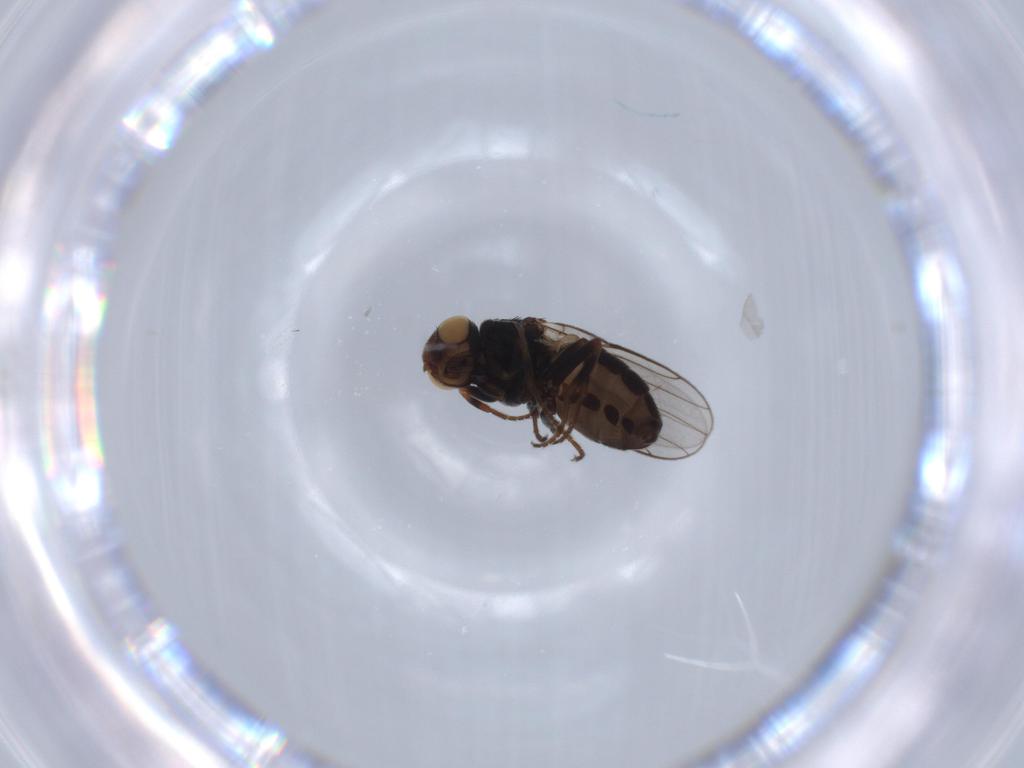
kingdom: Animalia
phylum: Arthropoda
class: Insecta
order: Diptera
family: Chloropidae
